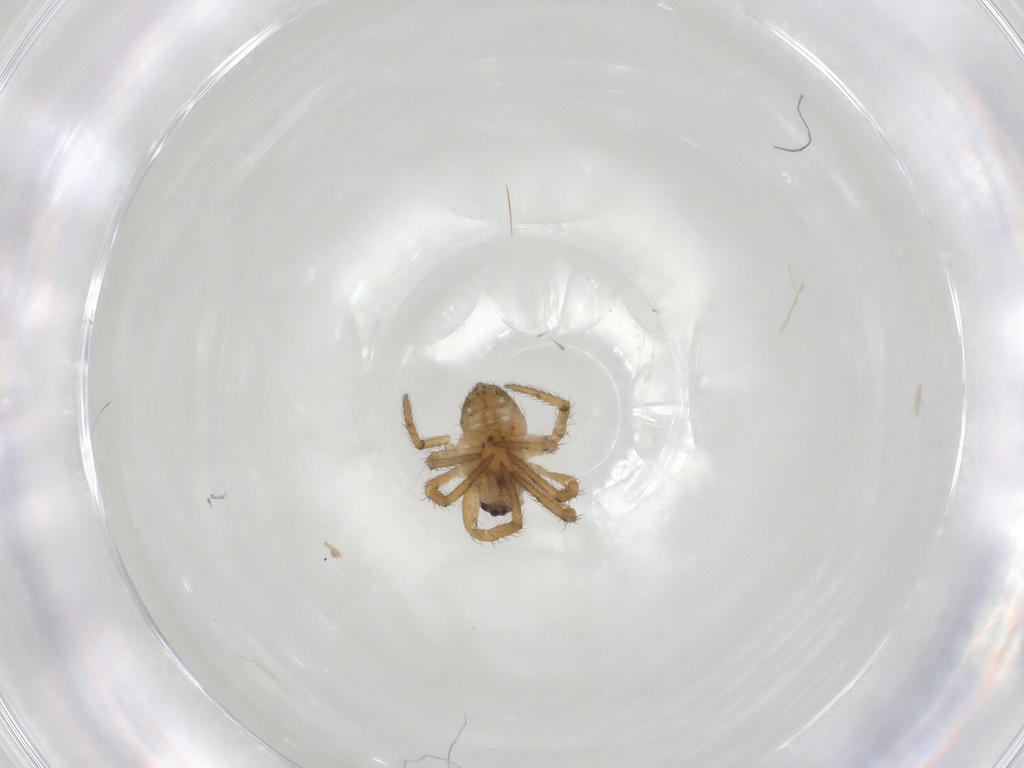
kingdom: Animalia
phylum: Arthropoda
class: Arachnida
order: Araneae
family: Araneidae
